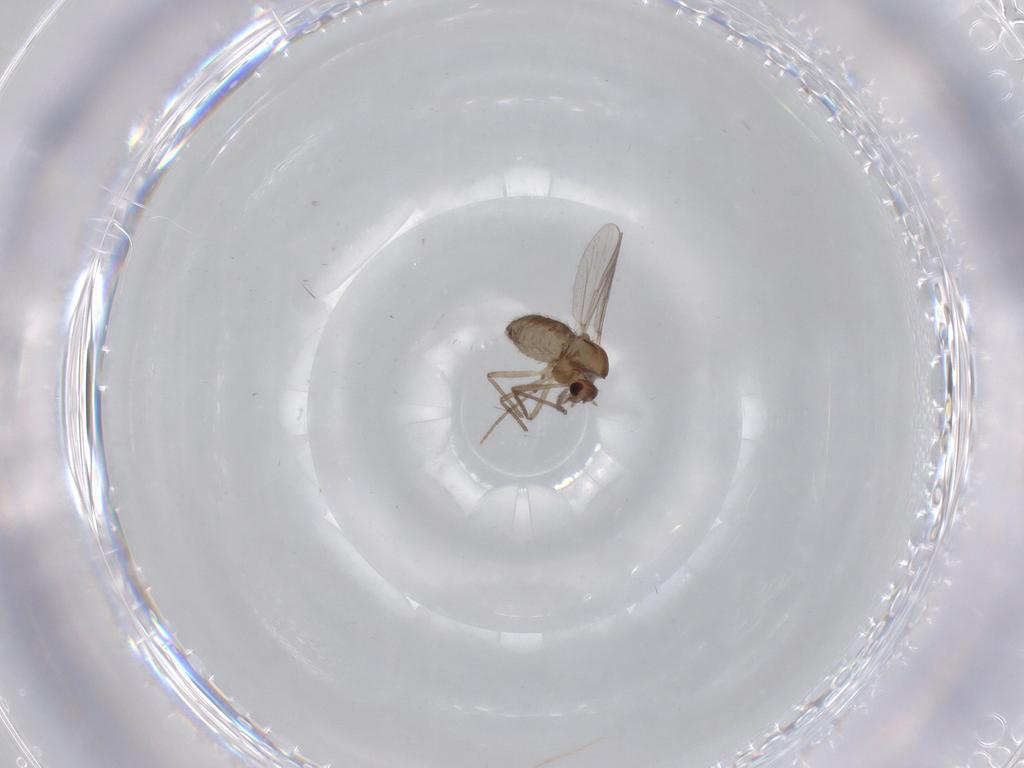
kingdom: Animalia
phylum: Arthropoda
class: Insecta
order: Diptera
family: Chironomidae
